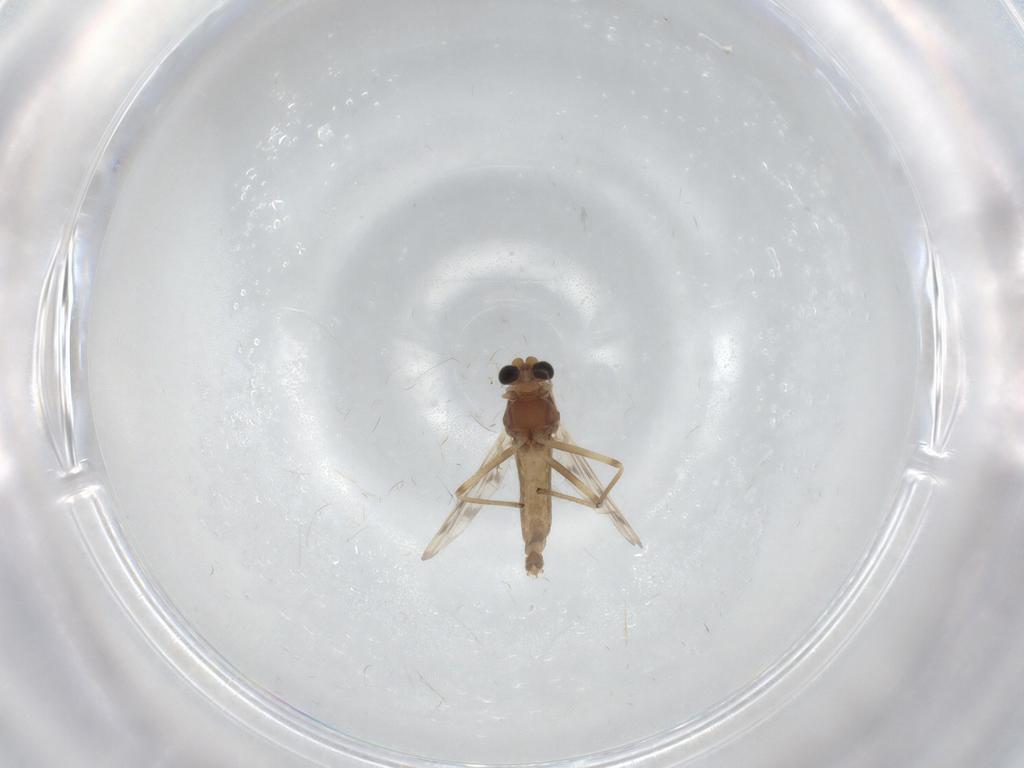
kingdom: Animalia
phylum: Arthropoda
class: Insecta
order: Diptera
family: Chironomidae
